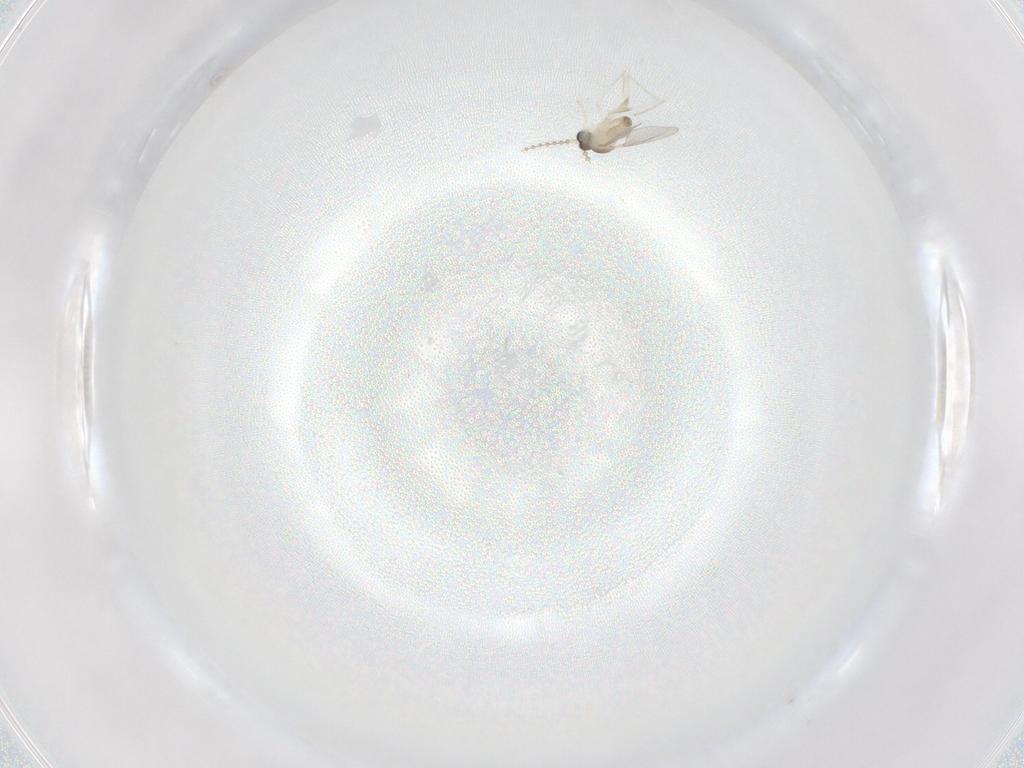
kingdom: Animalia
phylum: Arthropoda
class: Insecta
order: Diptera
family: Cecidomyiidae
